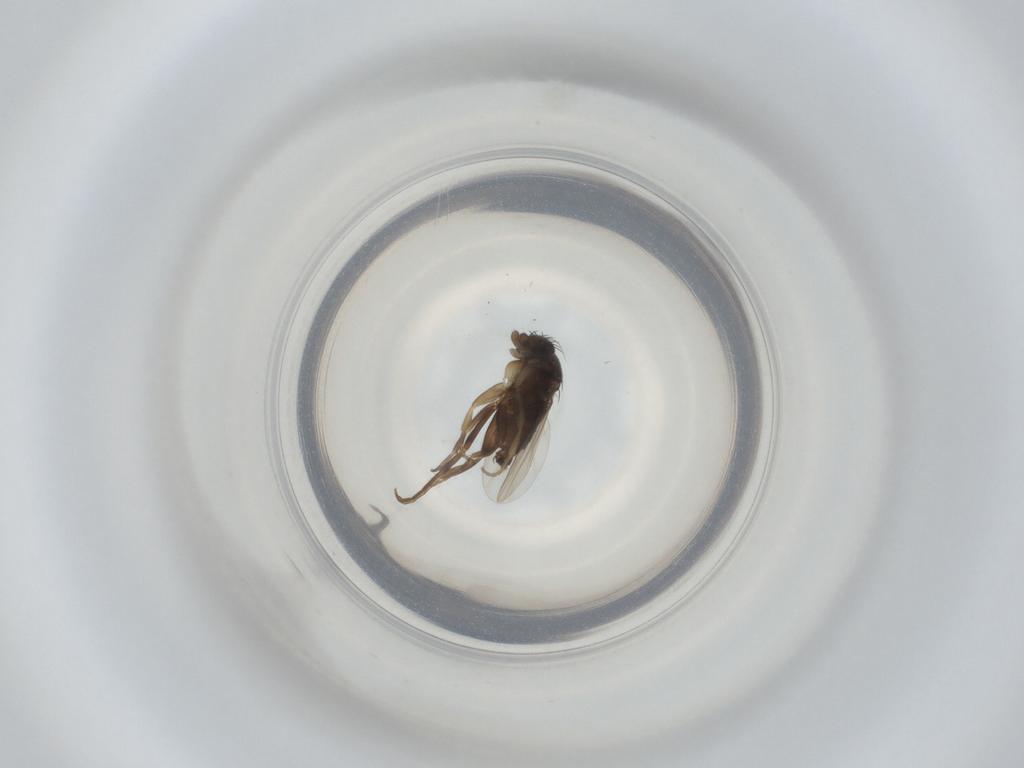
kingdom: Animalia
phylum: Arthropoda
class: Insecta
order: Diptera
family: Phoridae
